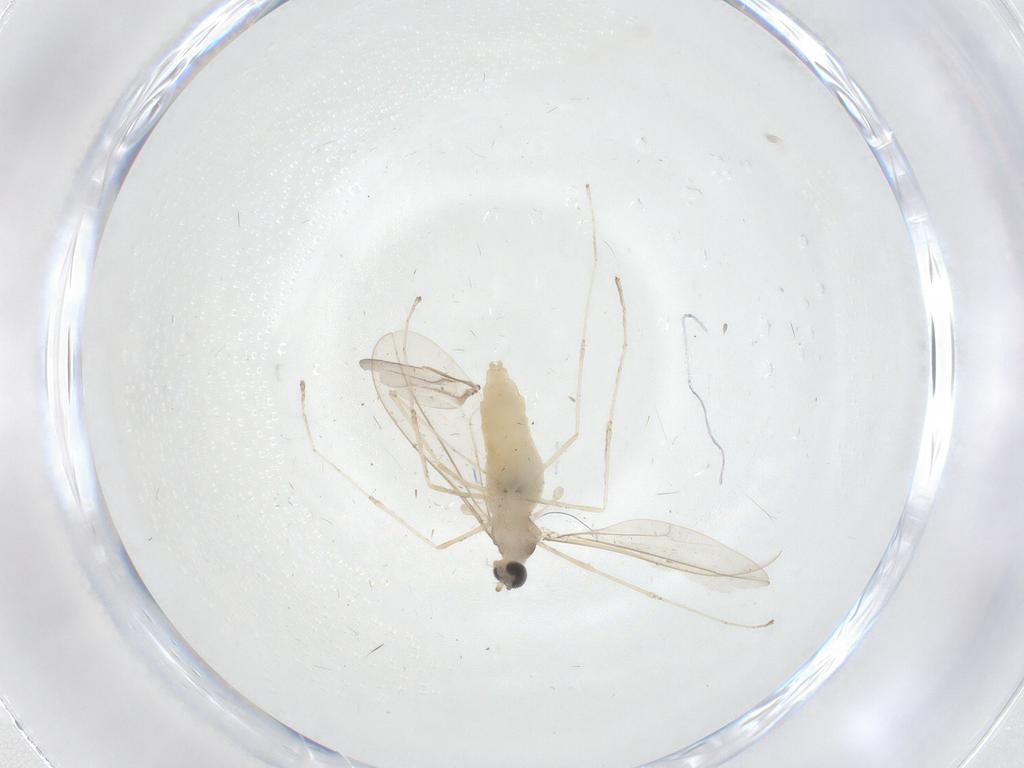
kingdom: Animalia
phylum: Arthropoda
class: Insecta
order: Diptera
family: Cecidomyiidae
